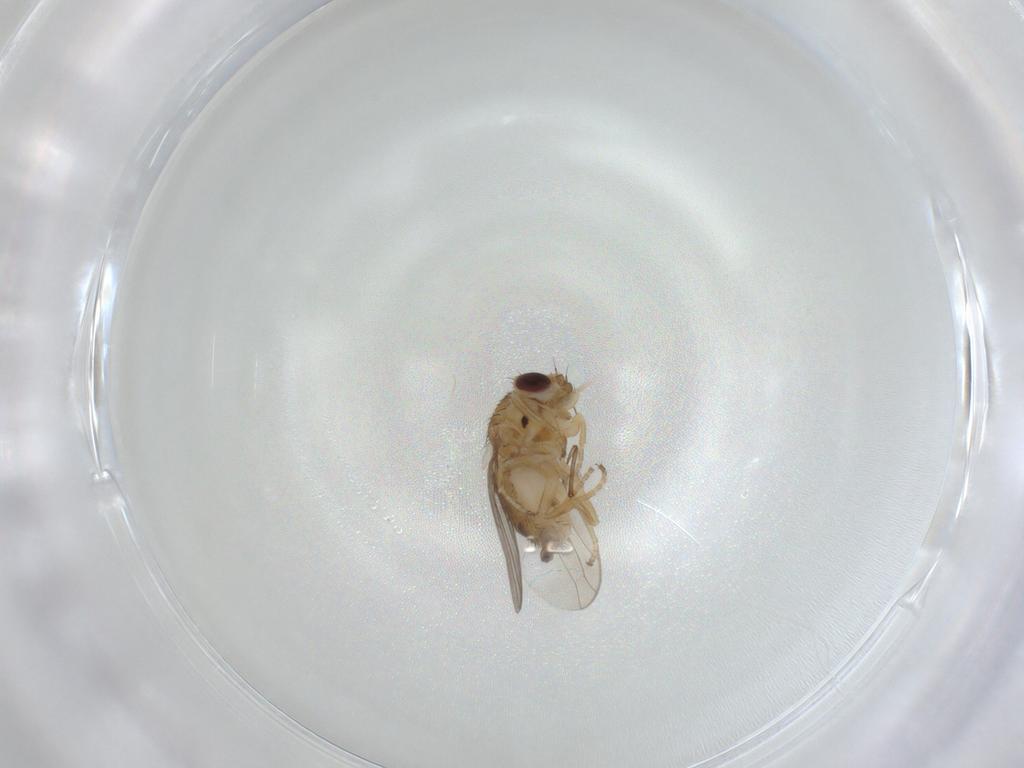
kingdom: Animalia
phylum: Arthropoda
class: Insecta
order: Diptera
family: Chloropidae
